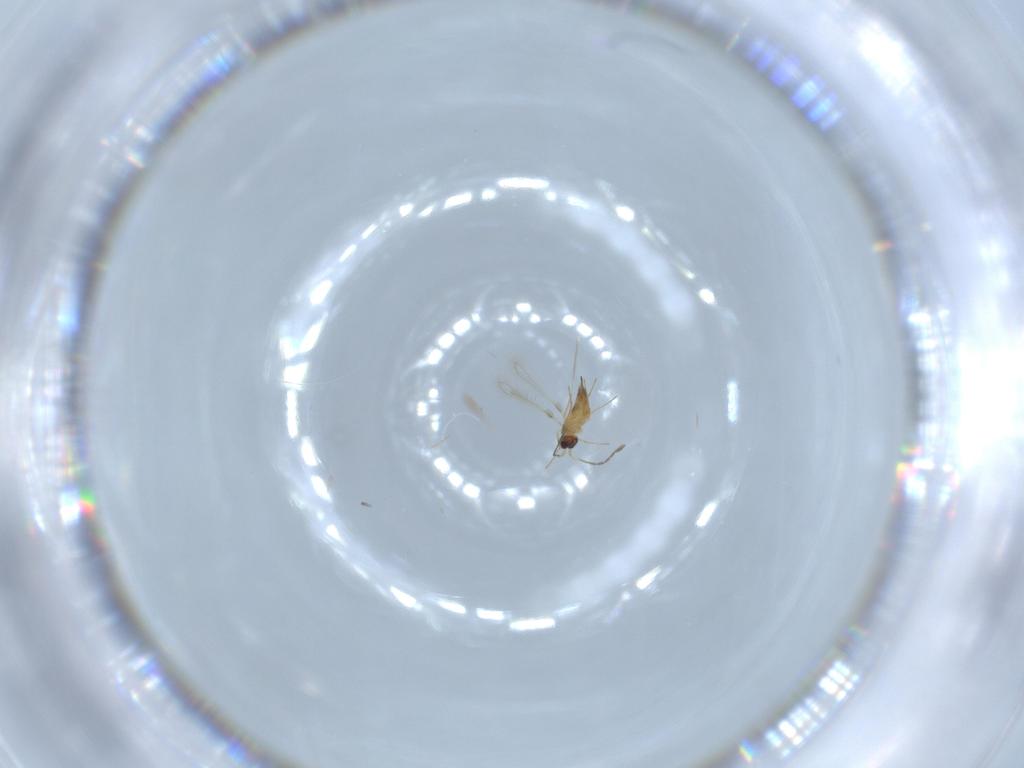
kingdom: Animalia
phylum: Arthropoda
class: Insecta
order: Hymenoptera
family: Mymaridae
